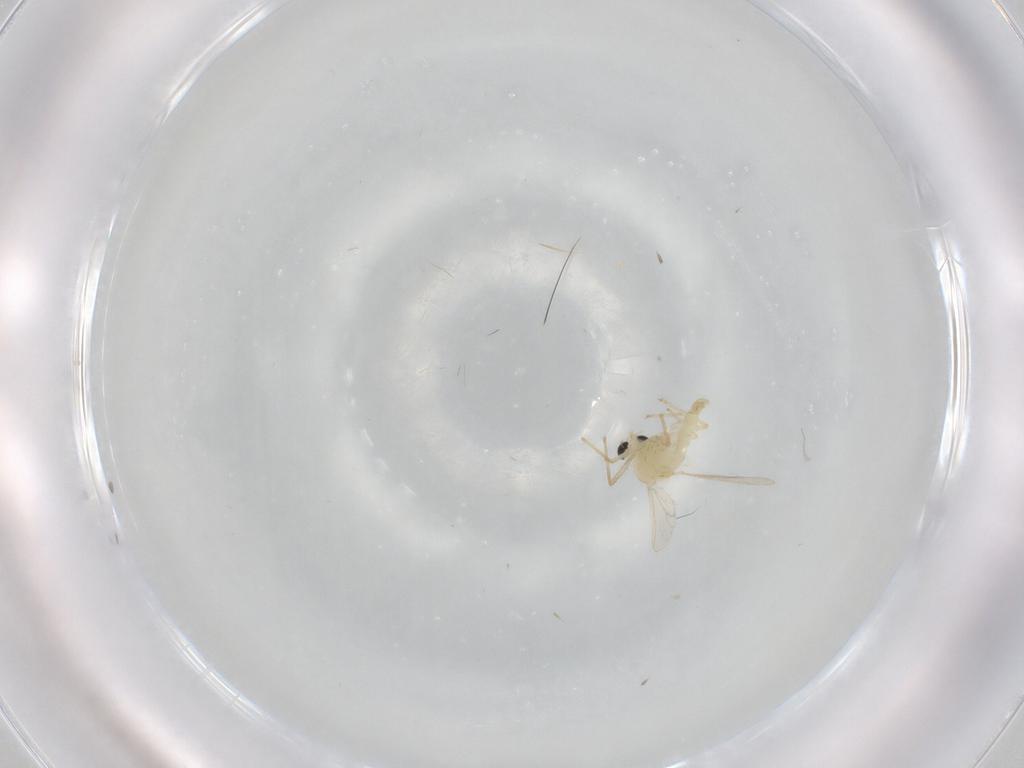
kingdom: Animalia
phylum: Arthropoda
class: Insecta
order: Diptera
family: Chironomidae
